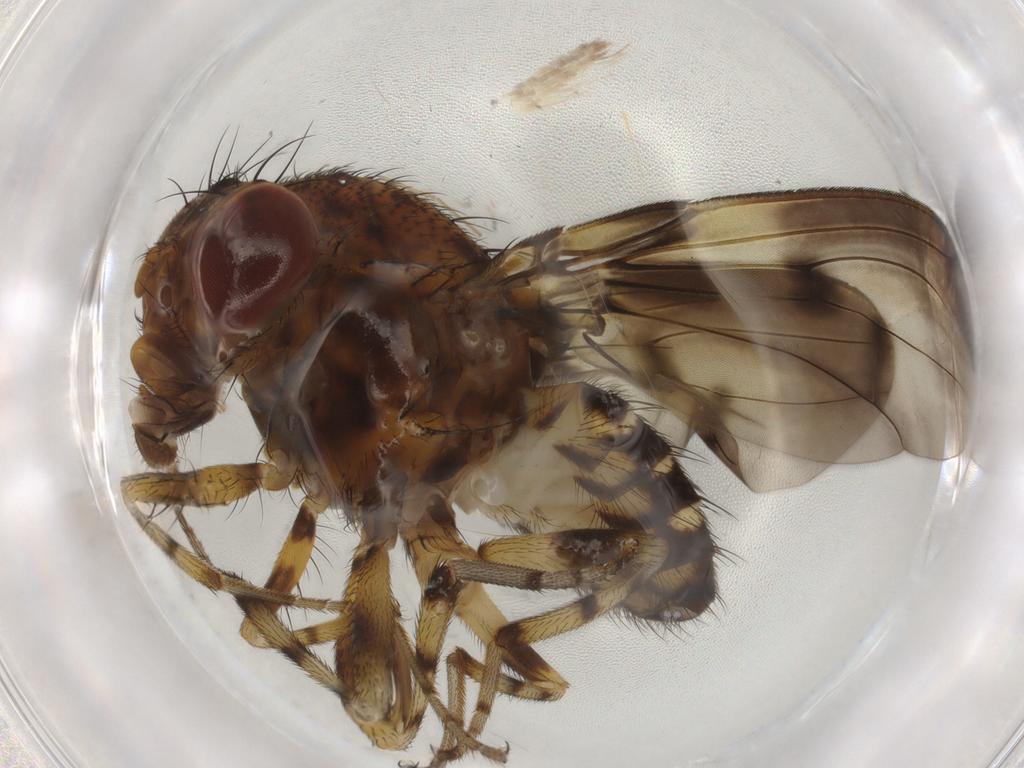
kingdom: Animalia
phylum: Arthropoda
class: Insecta
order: Diptera
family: Drosophilidae
